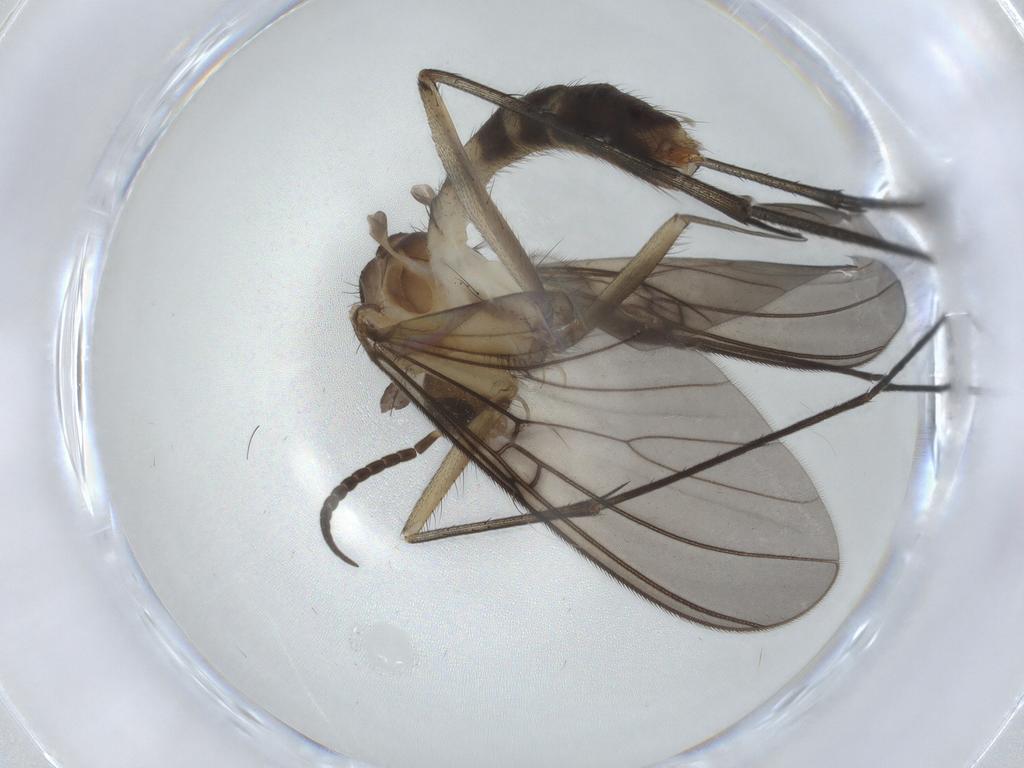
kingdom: Animalia
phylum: Arthropoda
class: Insecta
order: Diptera
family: Mycetophilidae
